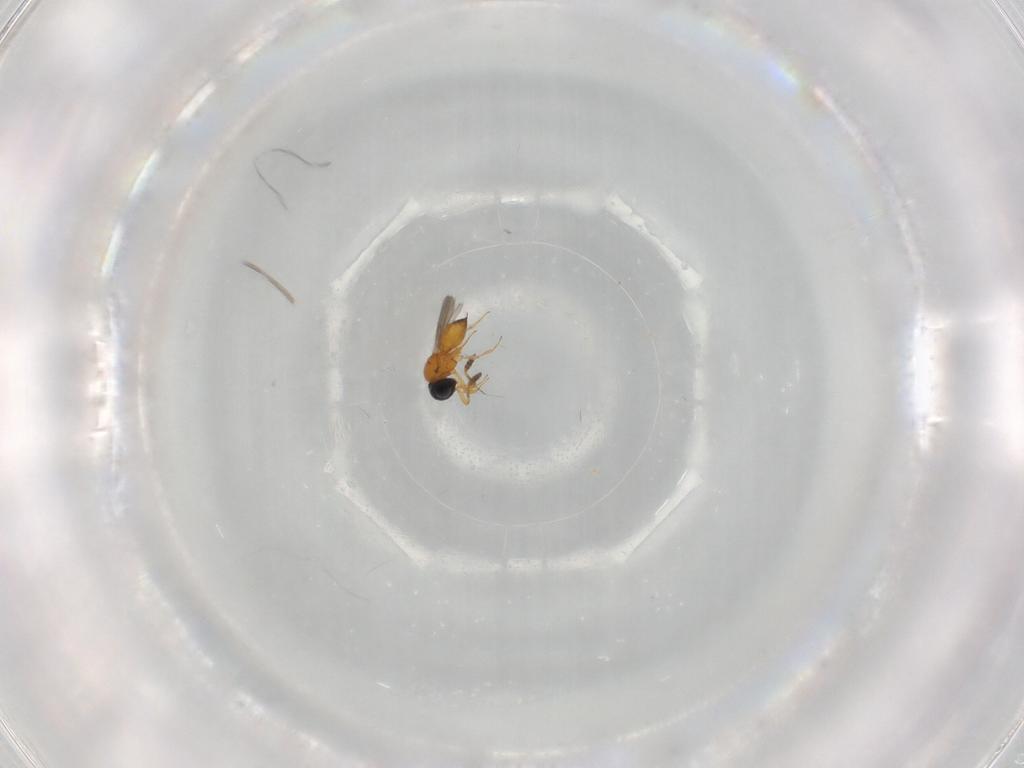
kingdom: Animalia
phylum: Arthropoda
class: Insecta
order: Hymenoptera
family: Scelionidae
